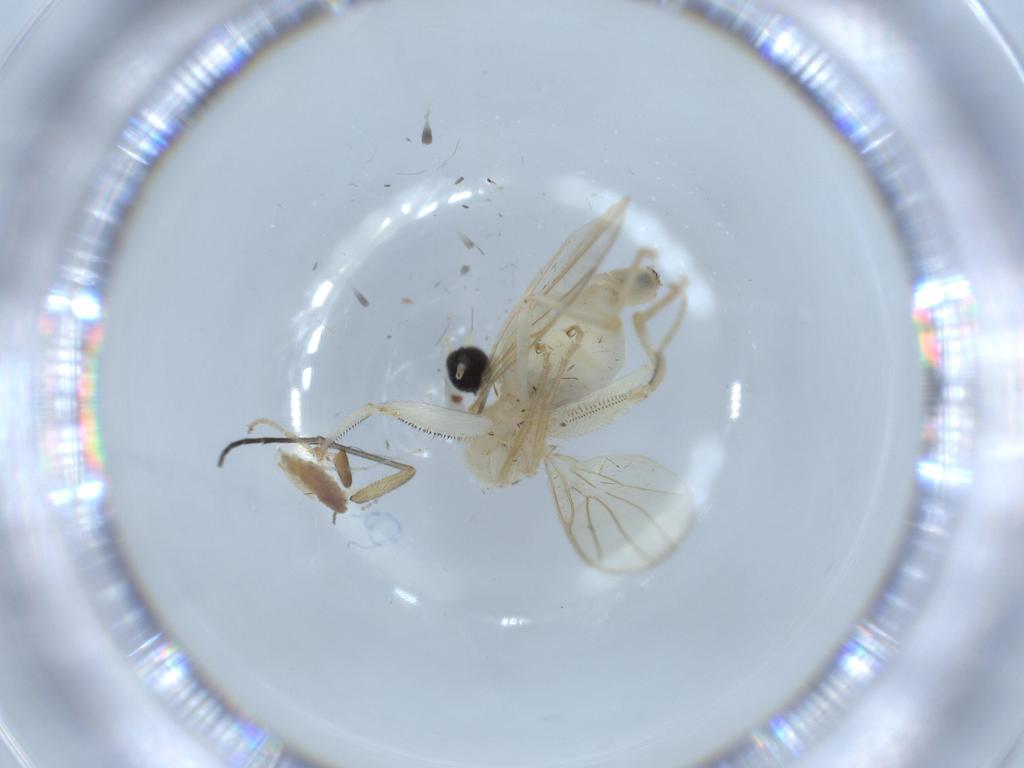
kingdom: Animalia
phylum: Arthropoda
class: Insecta
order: Diptera
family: Hybotidae
